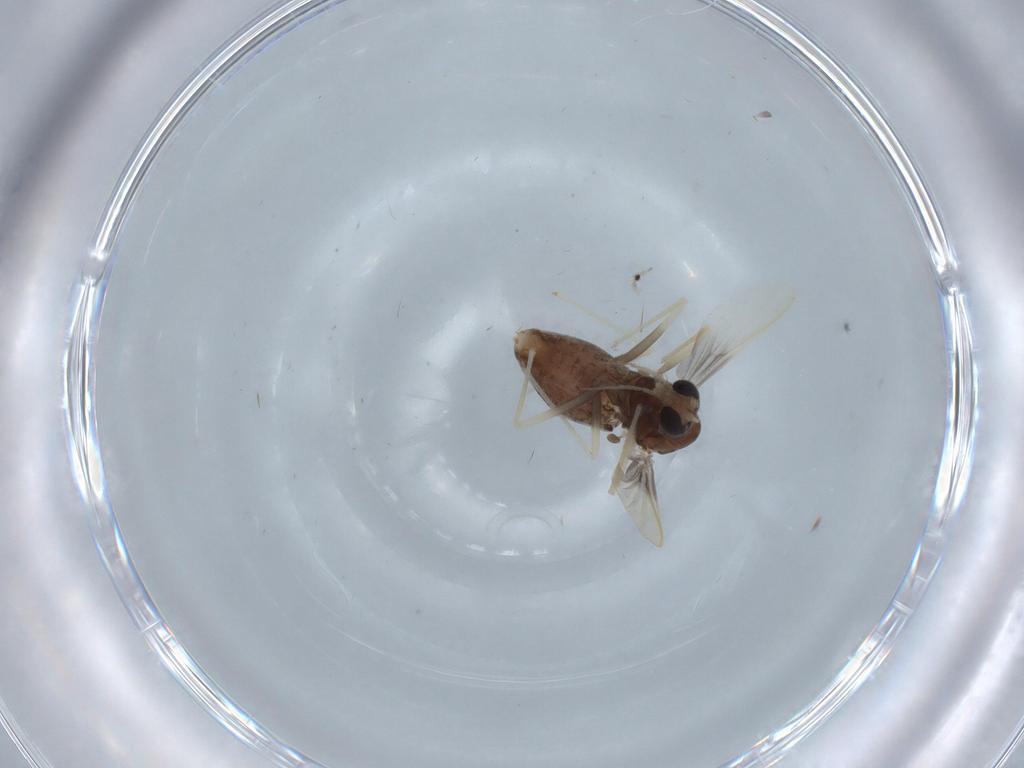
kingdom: Animalia
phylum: Arthropoda
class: Insecta
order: Diptera
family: Chironomidae
